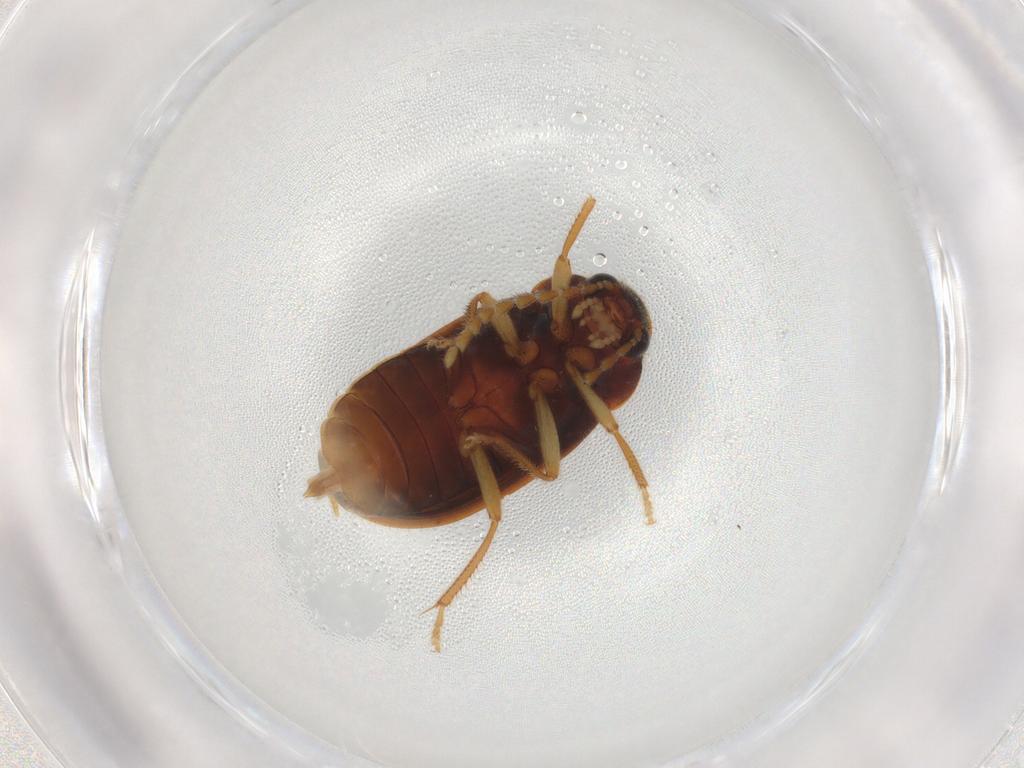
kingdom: Animalia
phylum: Arthropoda
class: Insecta
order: Coleoptera
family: Ptilodactylidae
